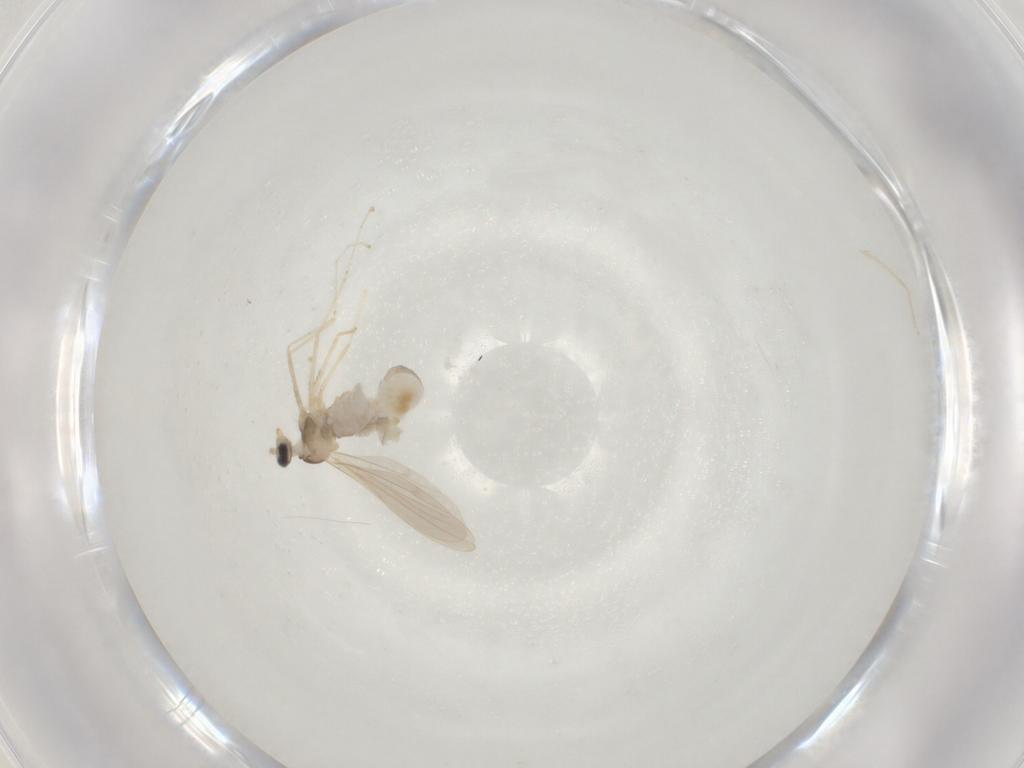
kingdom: Animalia
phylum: Arthropoda
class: Insecta
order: Diptera
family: Cecidomyiidae
